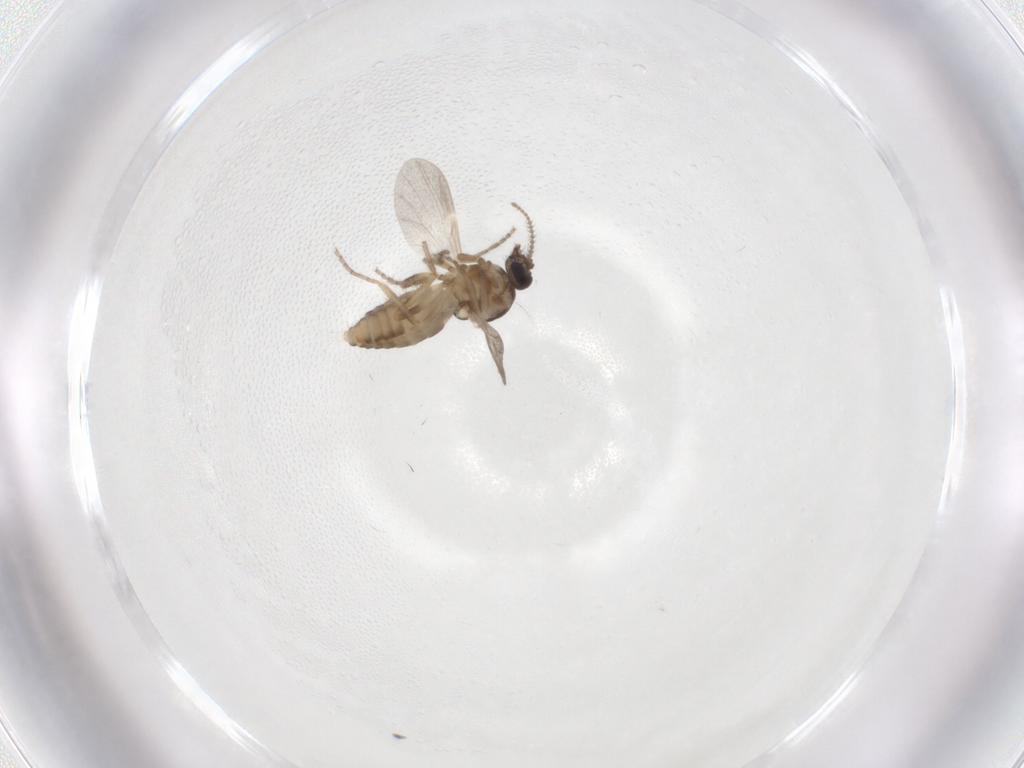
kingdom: Animalia
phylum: Arthropoda
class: Insecta
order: Diptera
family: Ceratopogonidae
